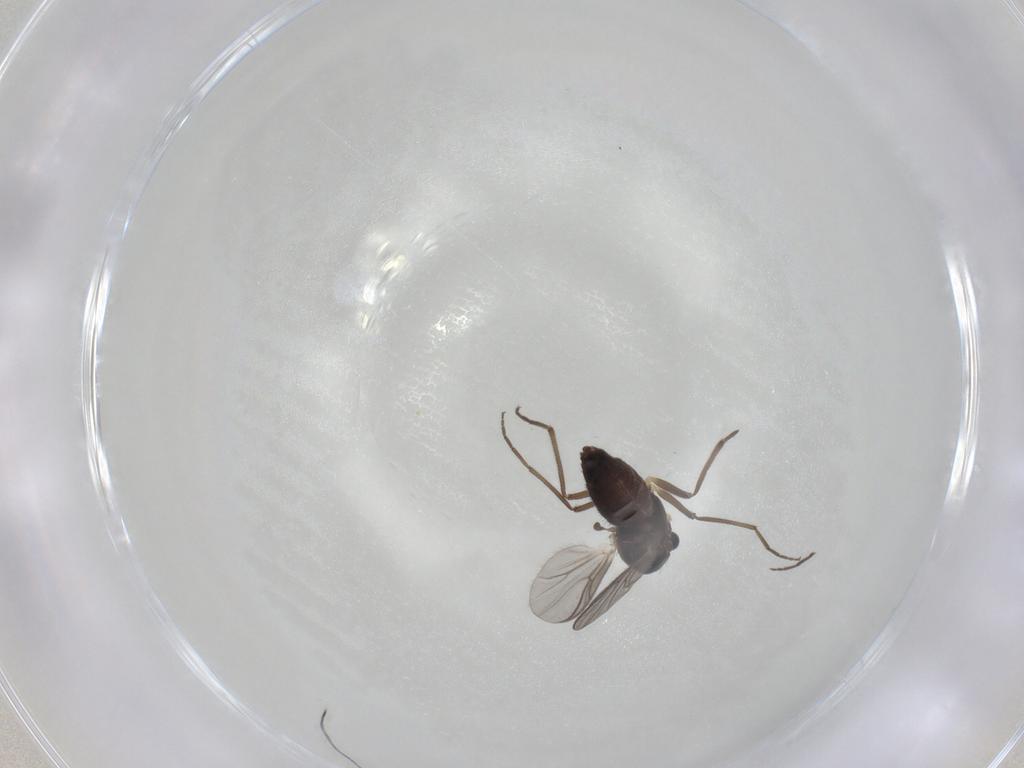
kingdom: Animalia
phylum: Arthropoda
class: Insecta
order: Diptera
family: Chironomidae
